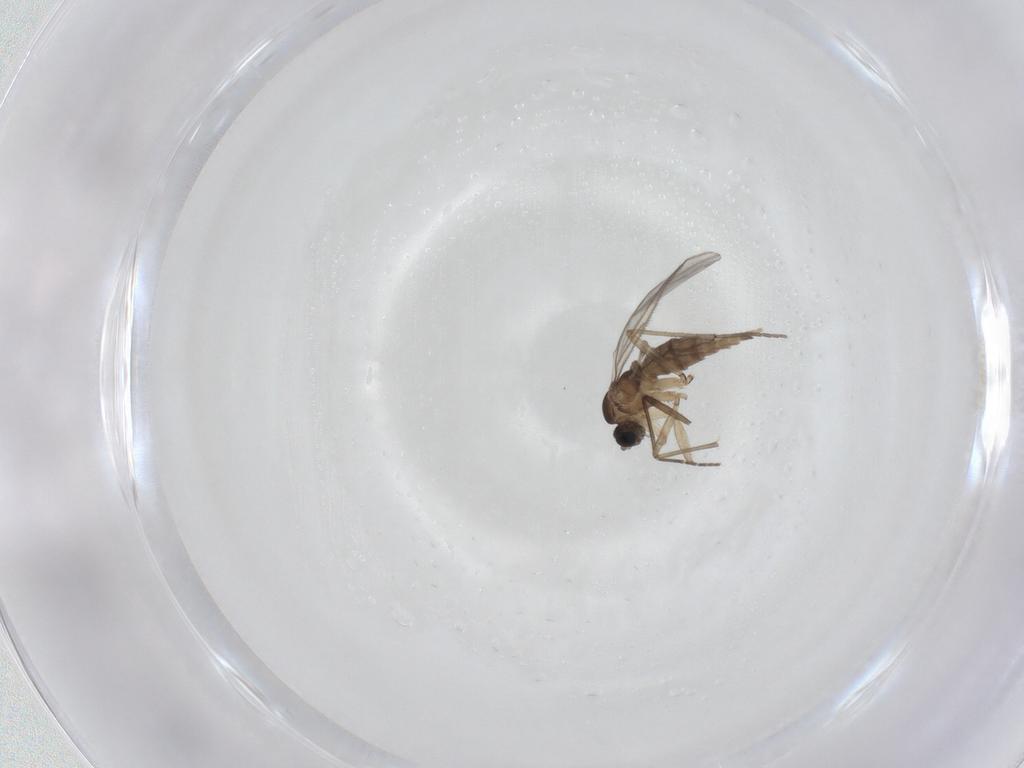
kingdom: Animalia
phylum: Arthropoda
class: Insecta
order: Diptera
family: Sciaridae
